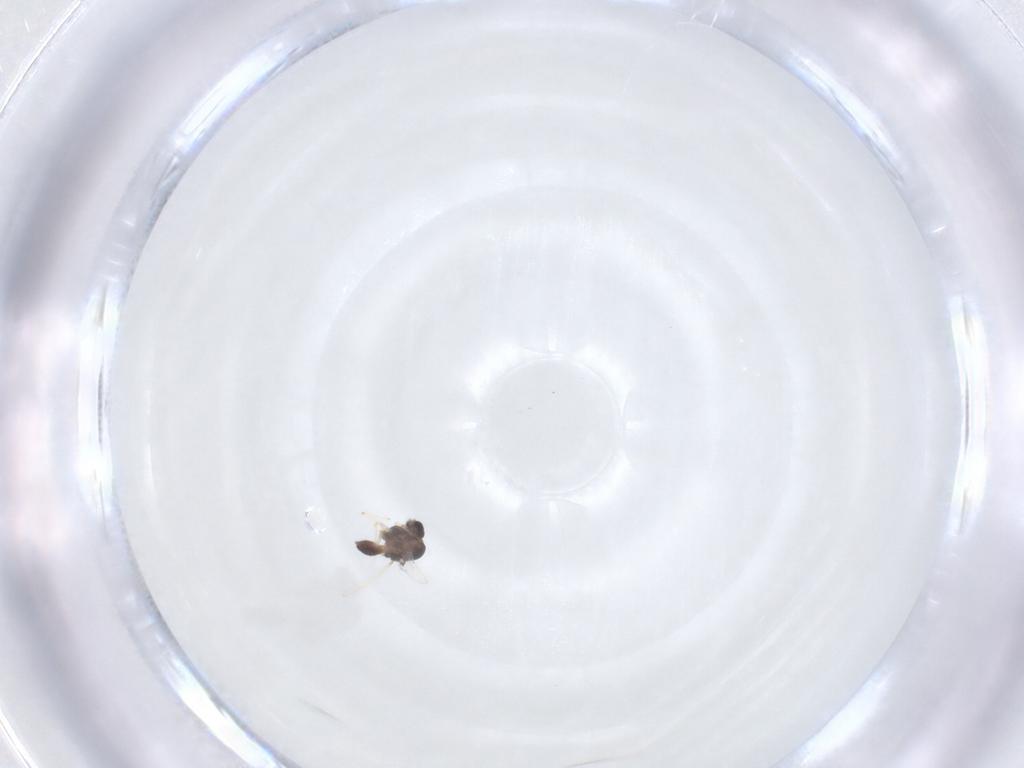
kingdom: Animalia
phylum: Arthropoda
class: Insecta
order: Diptera
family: Chironomidae
